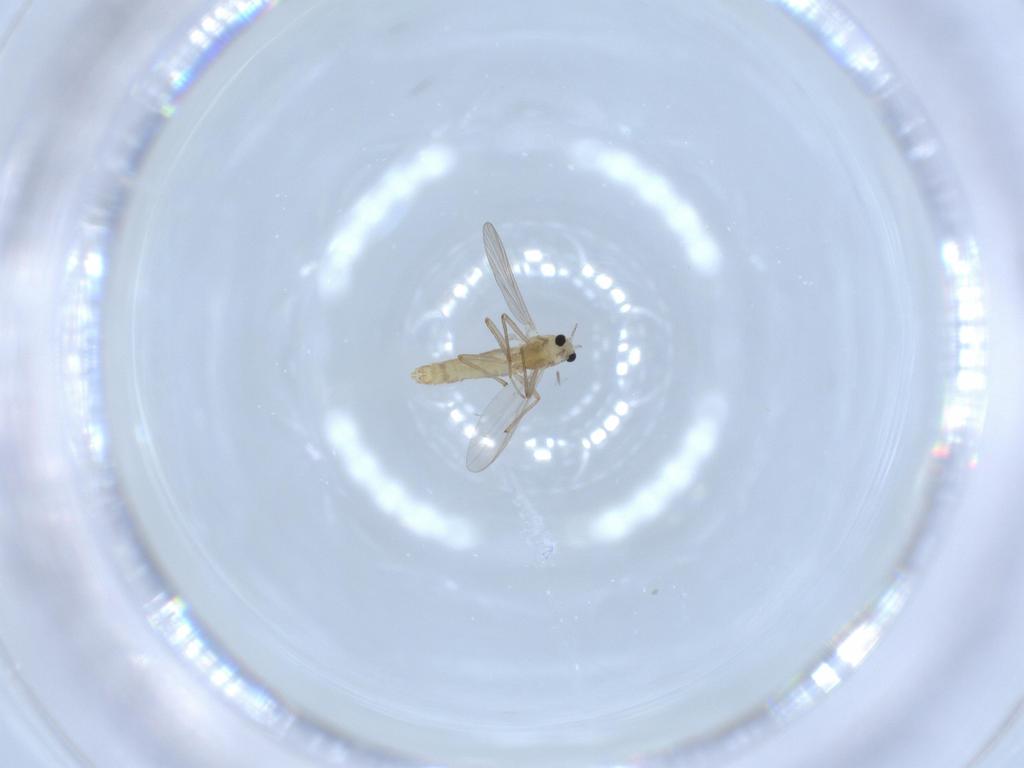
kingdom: Animalia
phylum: Arthropoda
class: Insecta
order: Diptera
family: Chironomidae
